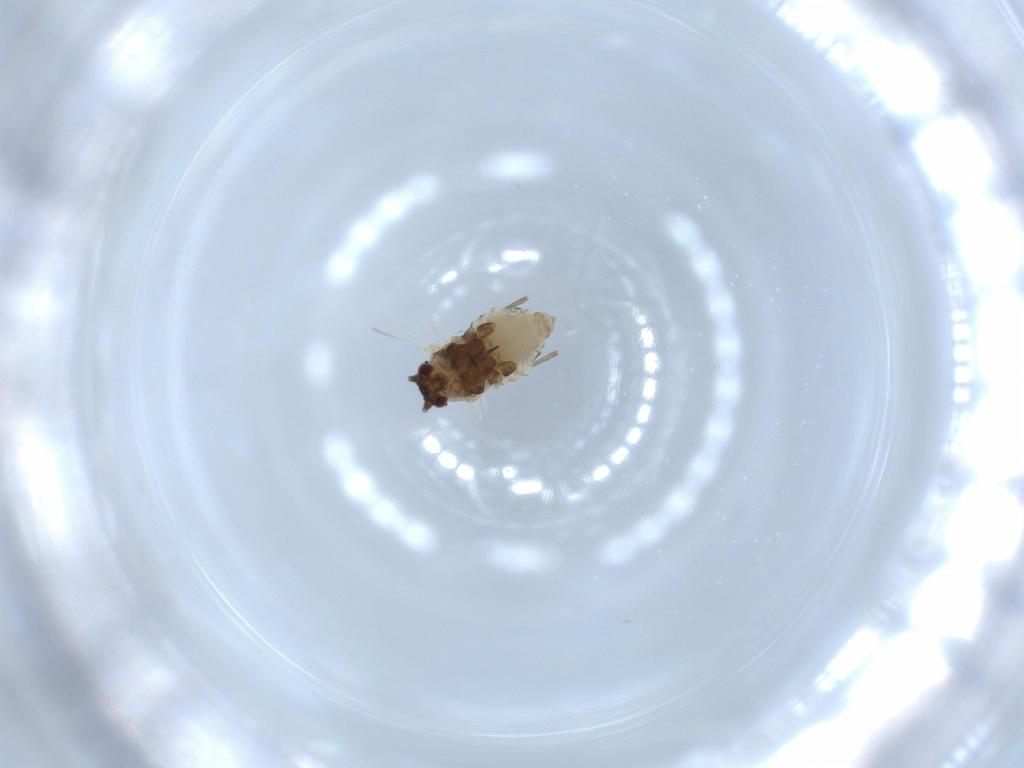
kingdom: Animalia
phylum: Arthropoda
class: Insecta
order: Hemiptera
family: Aphididae
